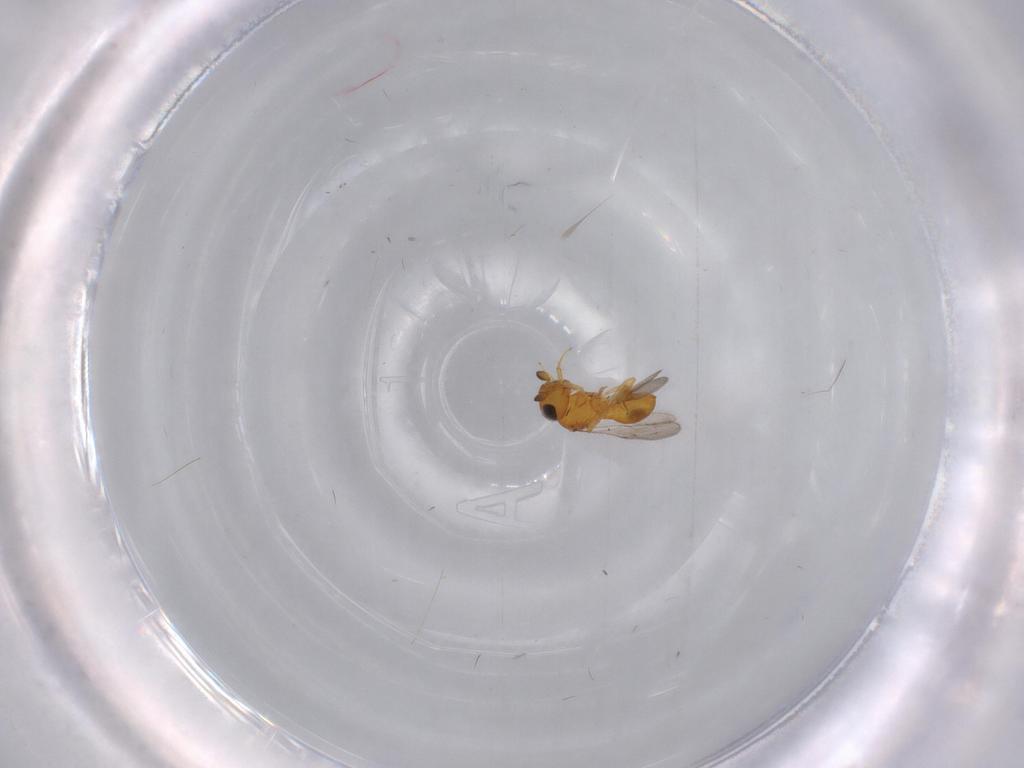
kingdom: Animalia
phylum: Arthropoda
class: Insecta
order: Hymenoptera
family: Scelionidae
